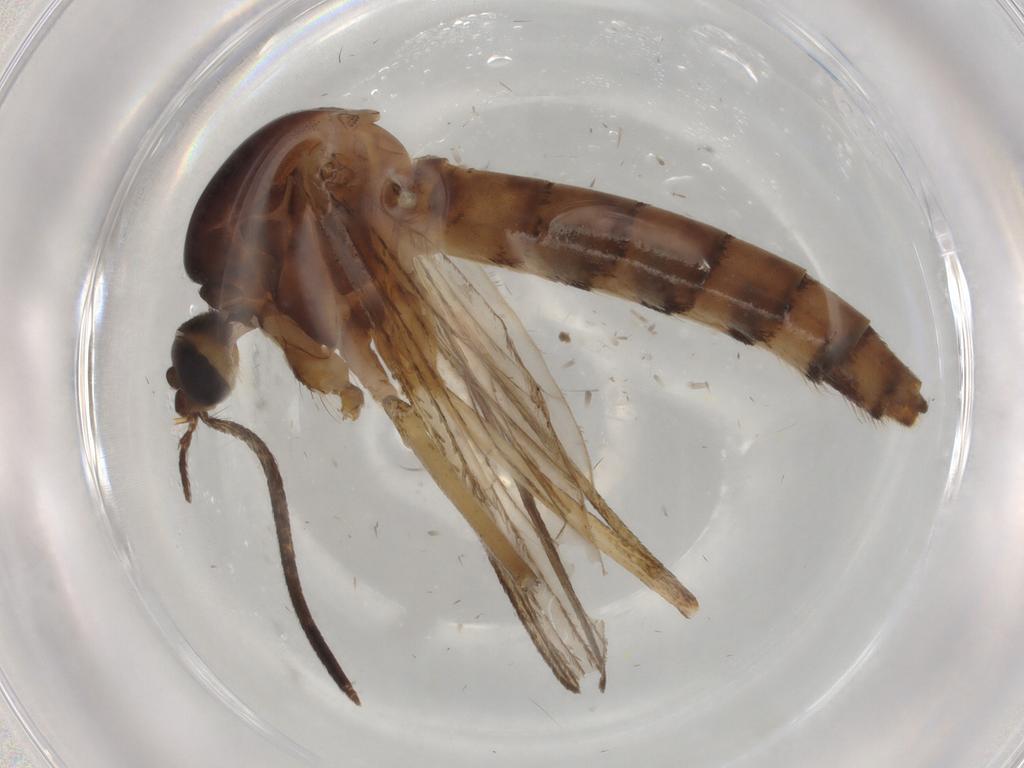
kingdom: Animalia
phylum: Arthropoda
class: Insecta
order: Diptera
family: Culicidae
